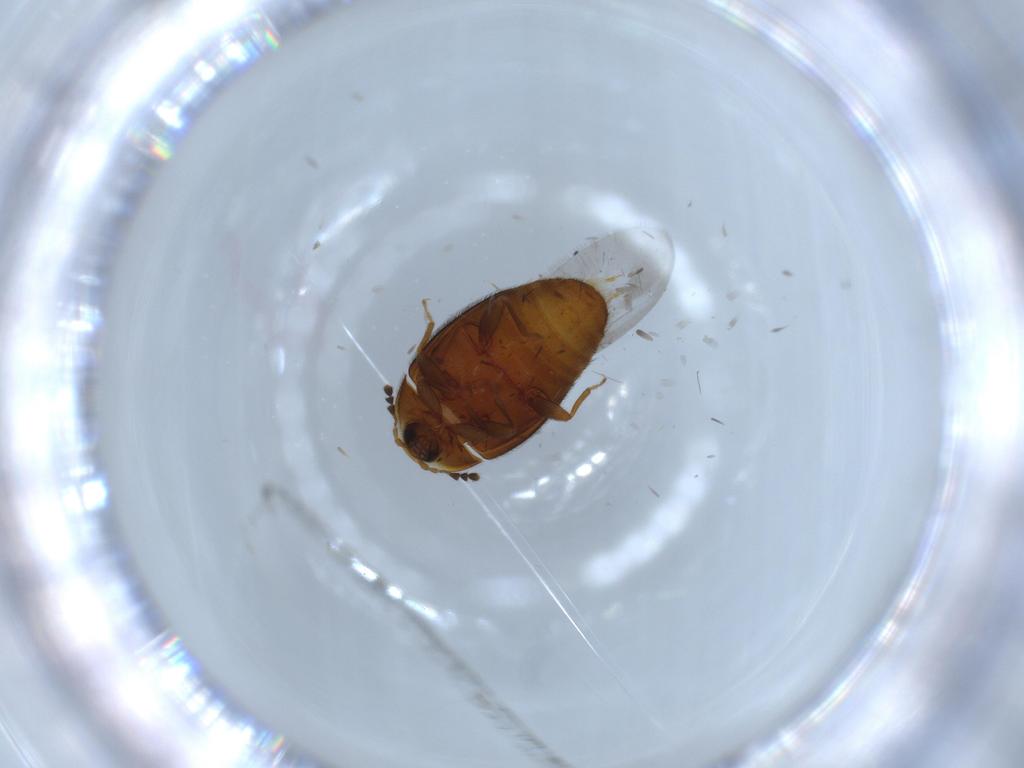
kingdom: Animalia
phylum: Arthropoda
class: Insecta
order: Coleoptera
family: Corylophidae
